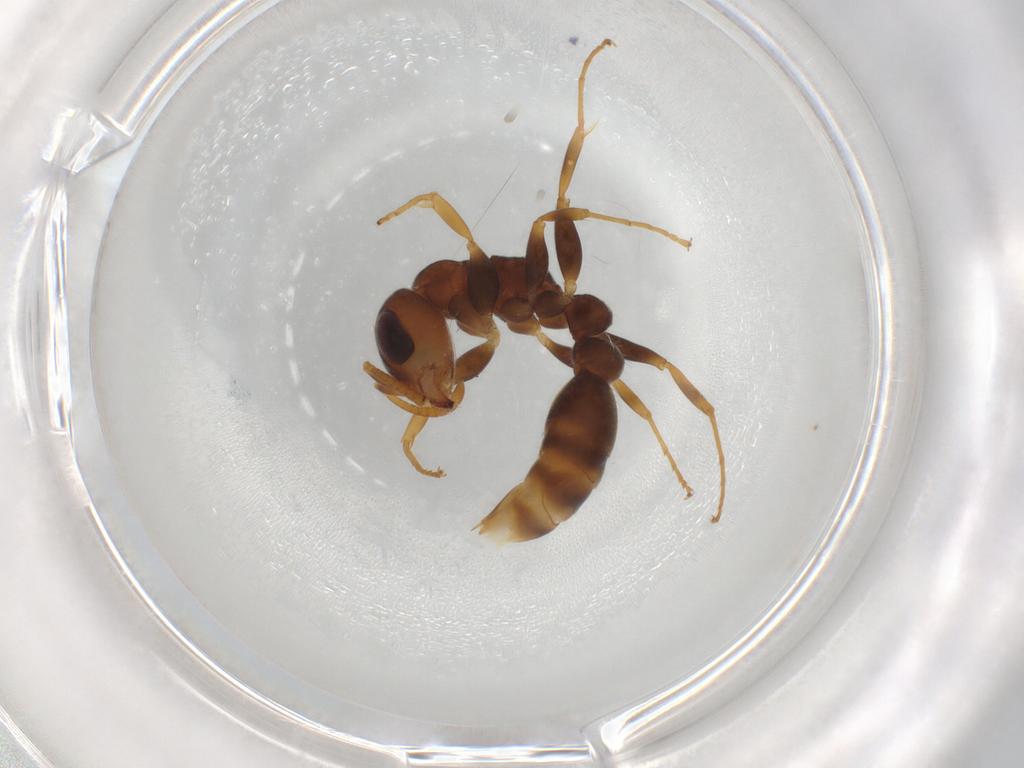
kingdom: Animalia
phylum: Arthropoda
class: Insecta
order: Hymenoptera
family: Formicidae
